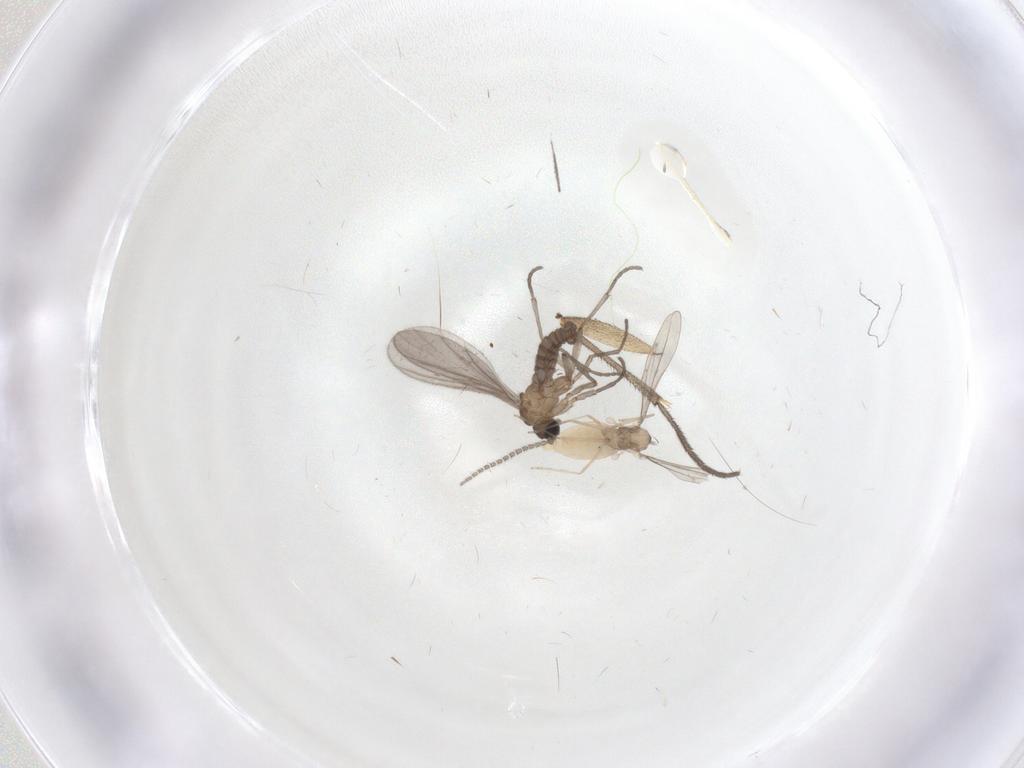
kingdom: Animalia
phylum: Arthropoda
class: Insecta
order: Diptera
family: Sciaridae
